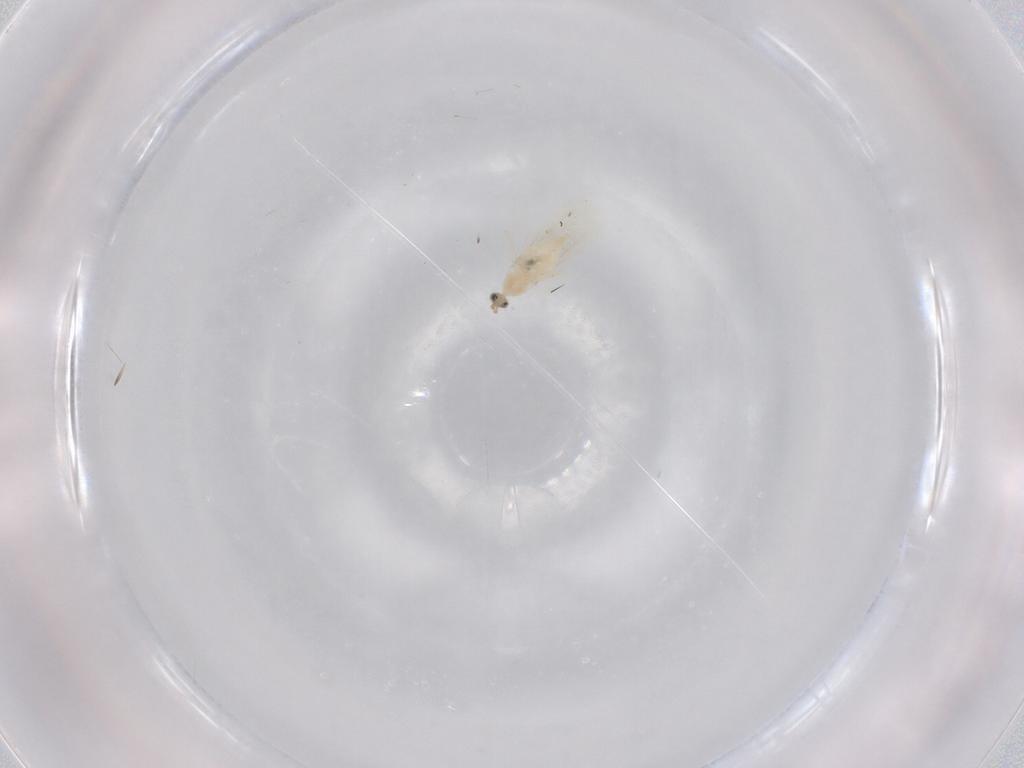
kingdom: Animalia
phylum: Arthropoda
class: Insecta
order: Diptera
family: Cecidomyiidae
